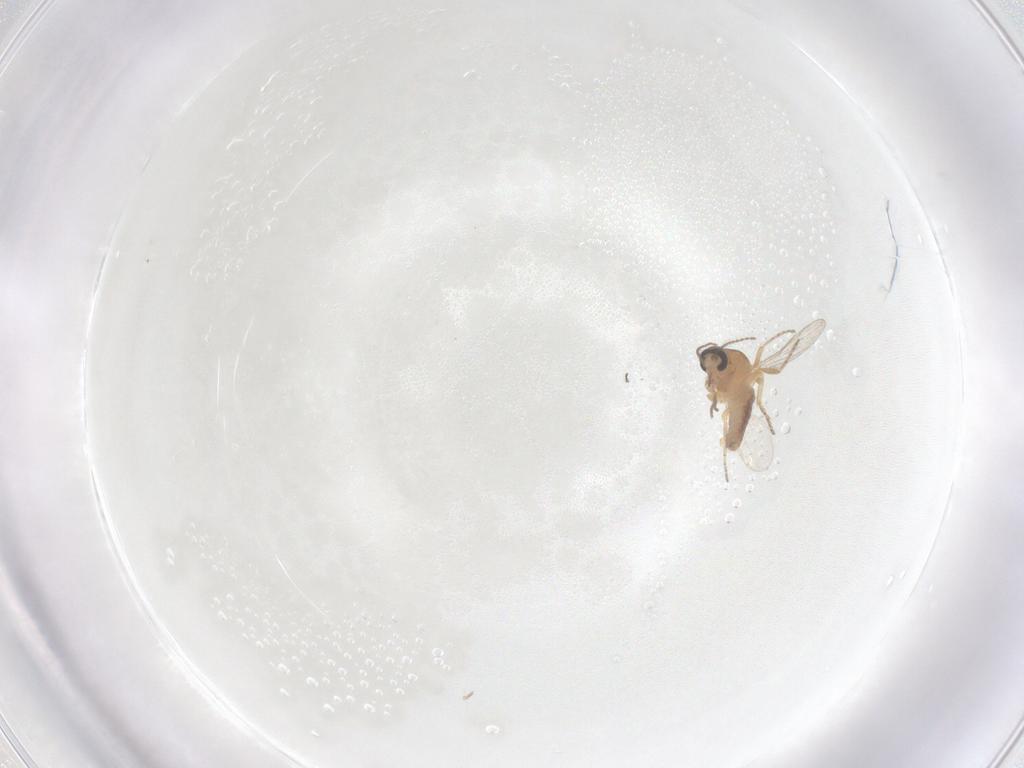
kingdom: Animalia
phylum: Arthropoda
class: Insecta
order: Diptera
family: Ceratopogonidae
